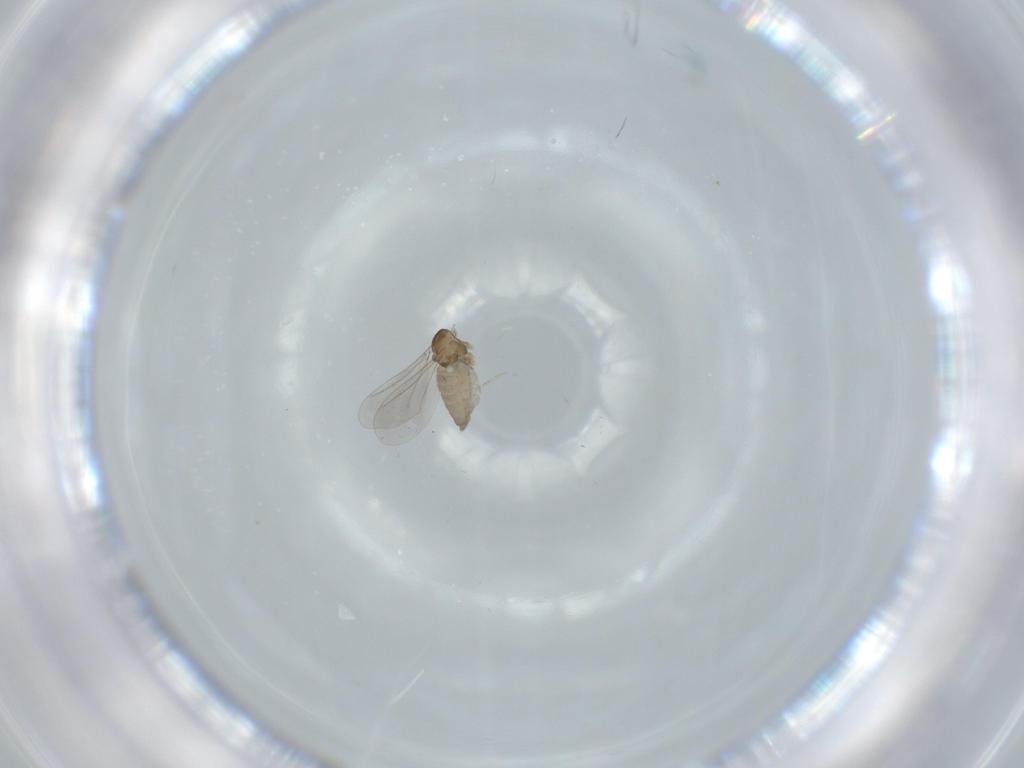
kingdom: Animalia
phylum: Arthropoda
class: Insecta
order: Diptera
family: Cecidomyiidae
